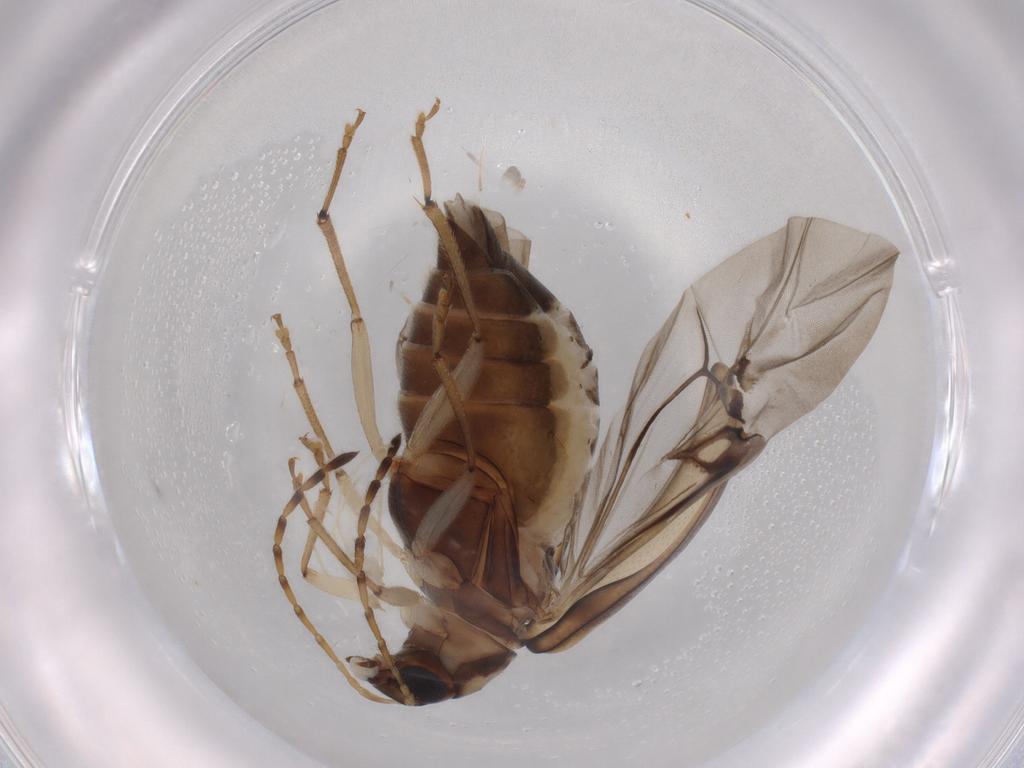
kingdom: Animalia
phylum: Arthropoda
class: Insecta
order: Coleoptera
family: Chrysomelidae
